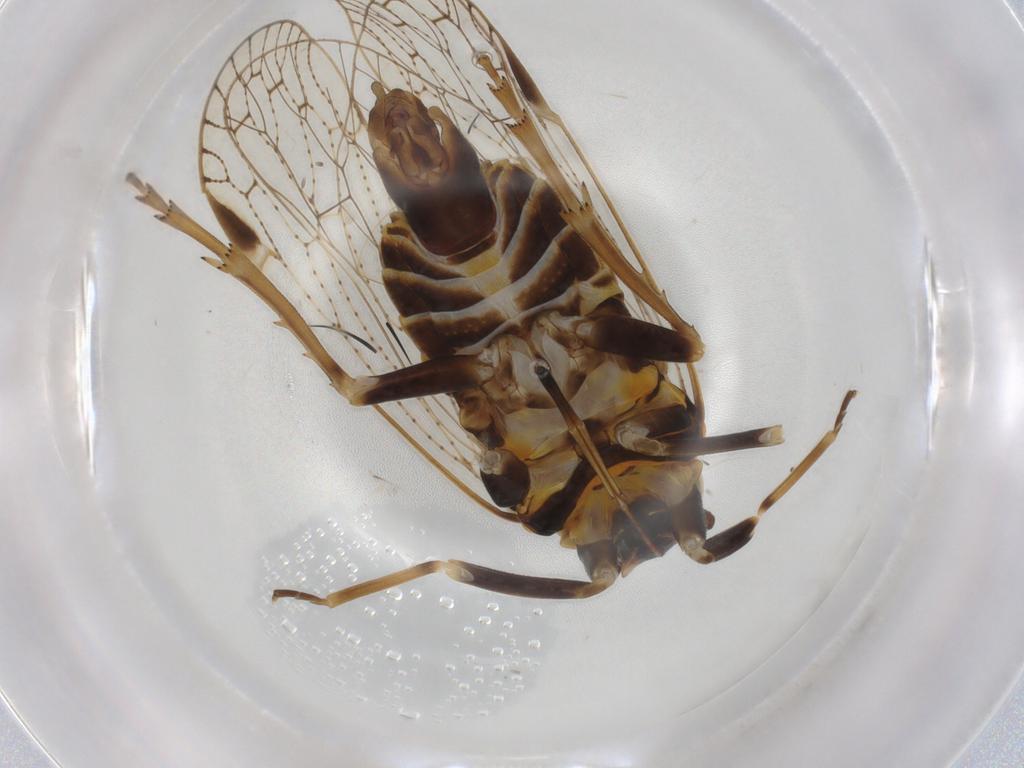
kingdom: Animalia
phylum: Arthropoda
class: Insecta
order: Hemiptera
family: Cixiidae
